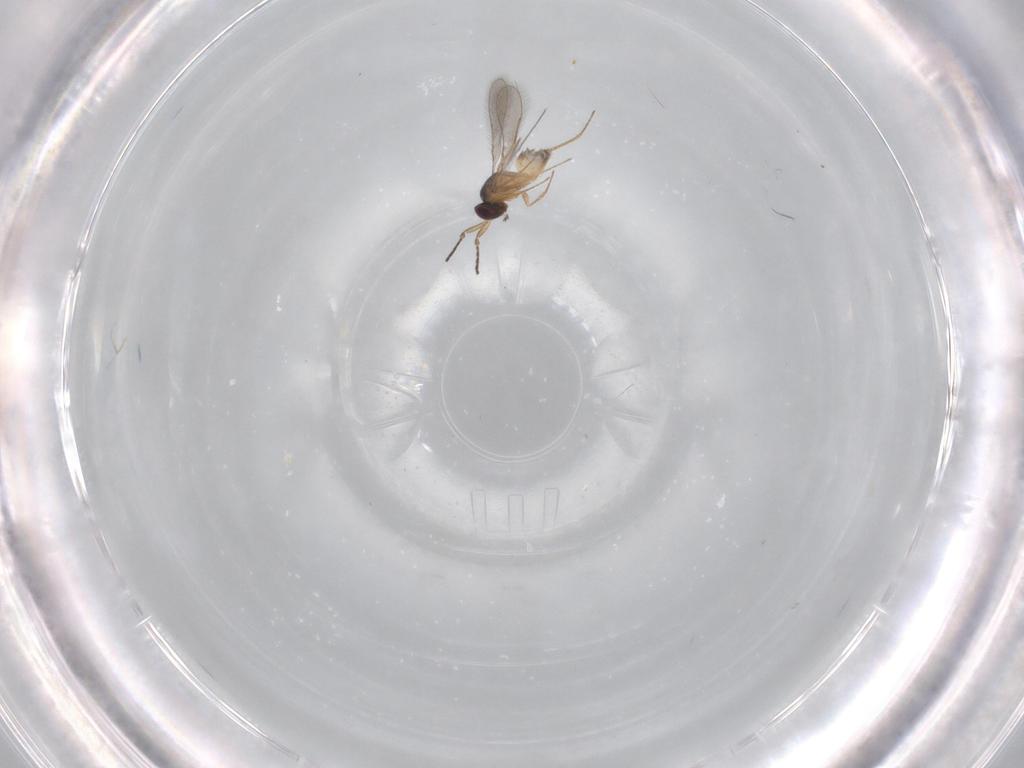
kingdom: Animalia
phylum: Arthropoda
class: Insecta
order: Hymenoptera
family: Mymaridae
